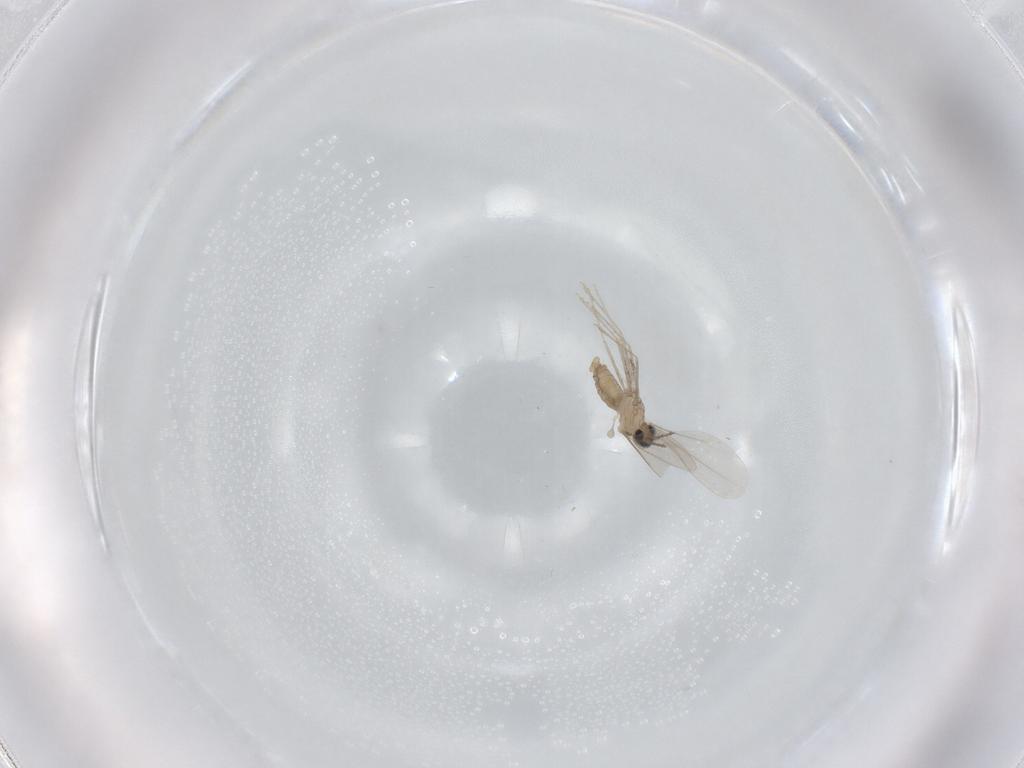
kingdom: Animalia
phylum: Arthropoda
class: Insecta
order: Diptera
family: Cecidomyiidae
